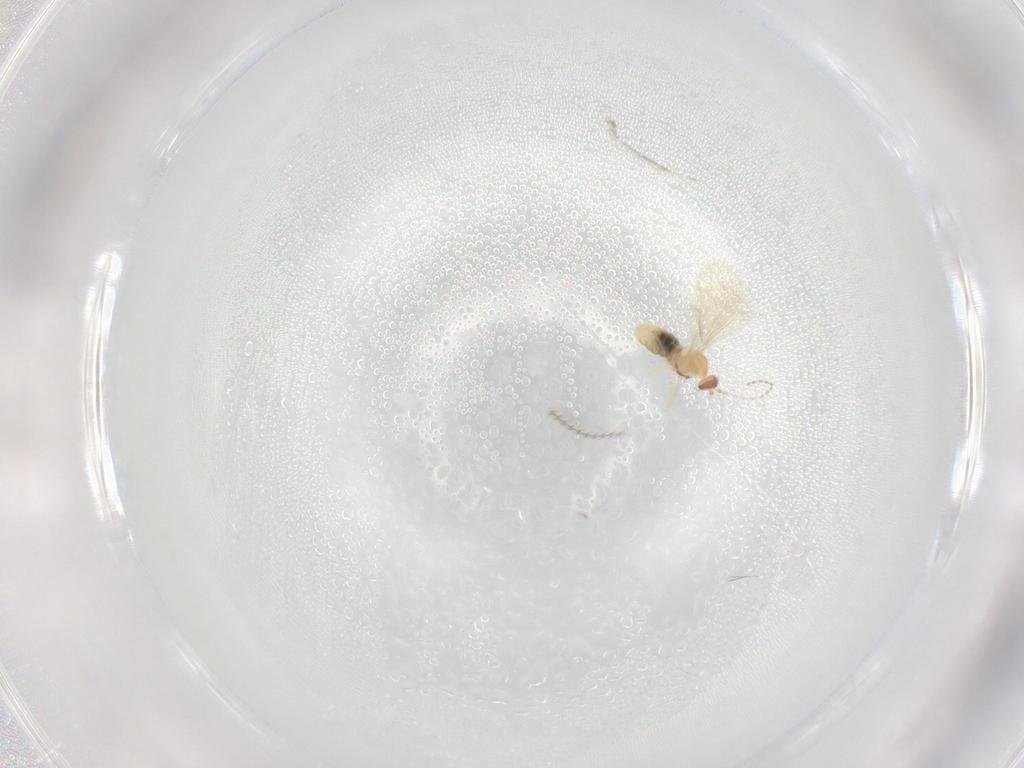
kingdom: Animalia
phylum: Arthropoda
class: Insecta
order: Diptera
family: Cecidomyiidae
